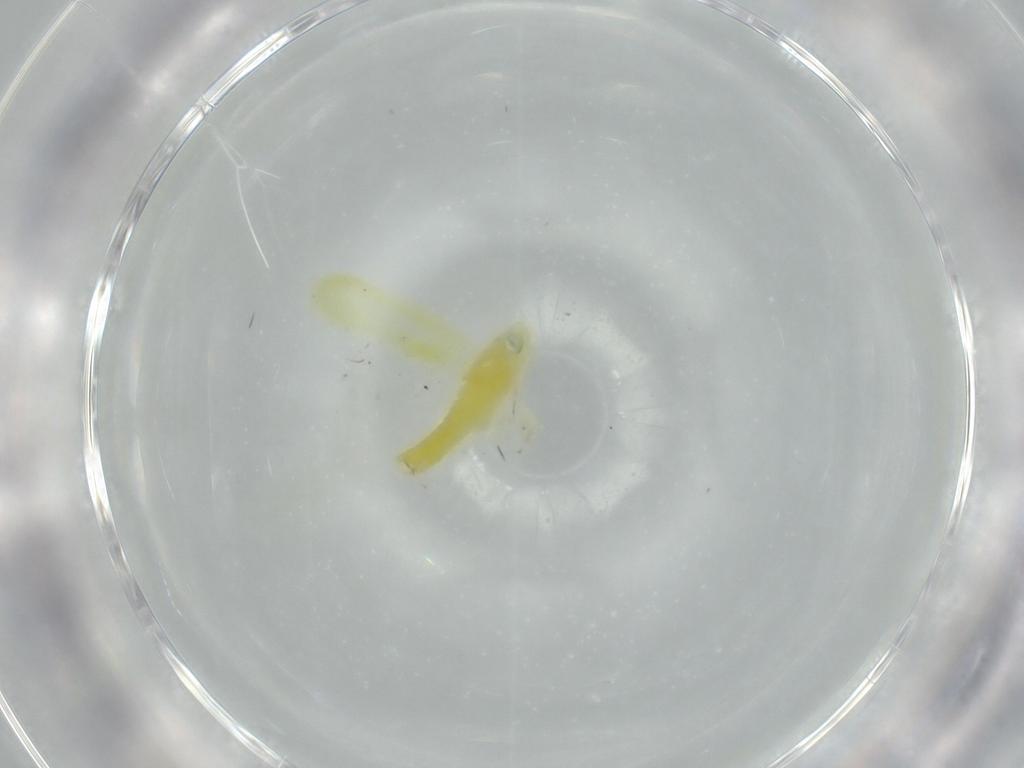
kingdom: Animalia
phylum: Arthropoda
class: Insecta
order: Hemiptera
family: Cicadellidae
